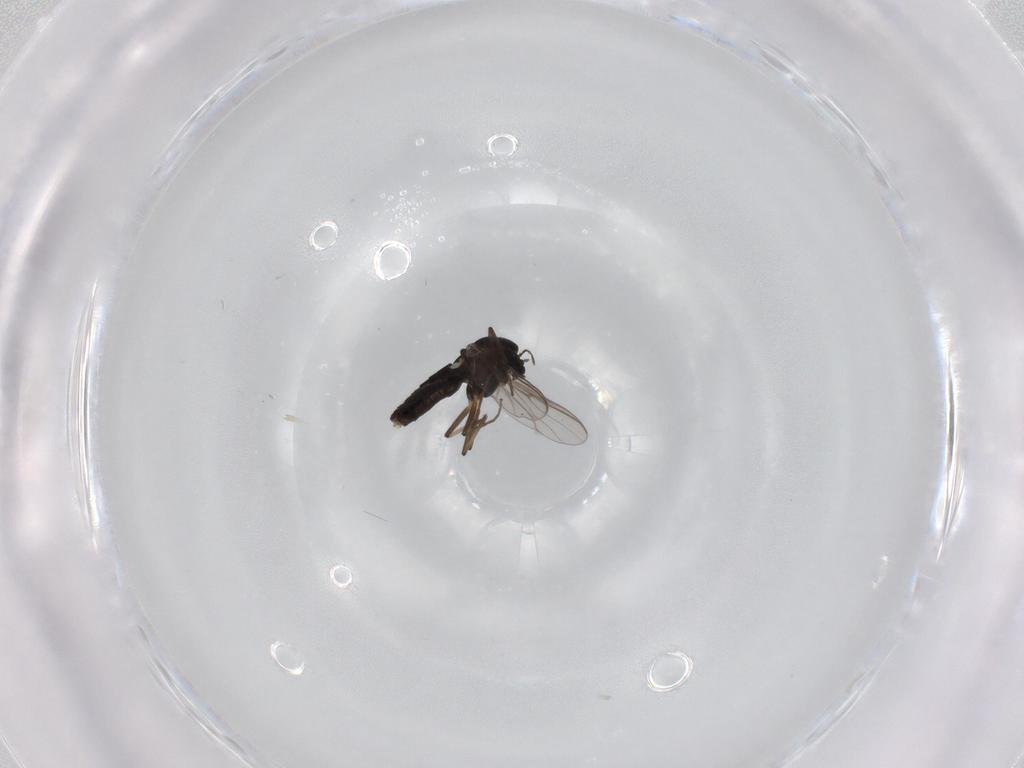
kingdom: Animalia
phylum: Arthropoda
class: Insecta
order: Diptera
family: Chironomidae
